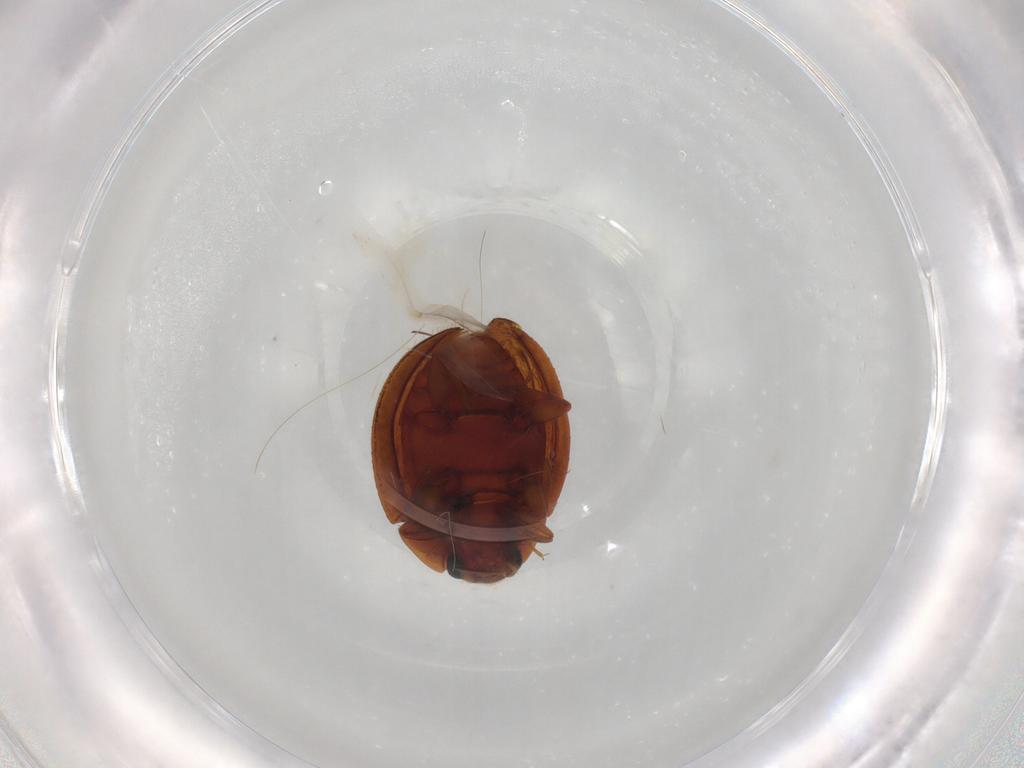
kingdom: Animalia
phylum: Arthropoda
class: Insecta
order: Coleoptera
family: Euxestidae
